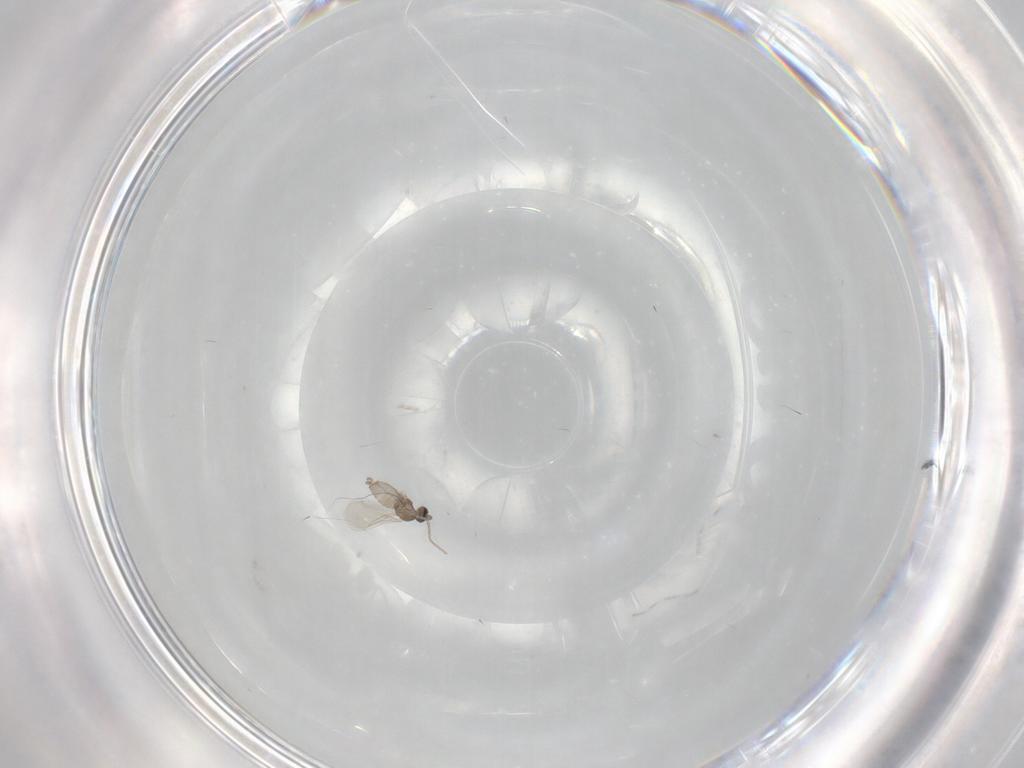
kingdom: Animalia
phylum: Arthropoda
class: Insecta
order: Diptera
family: Cecidomyiidae
